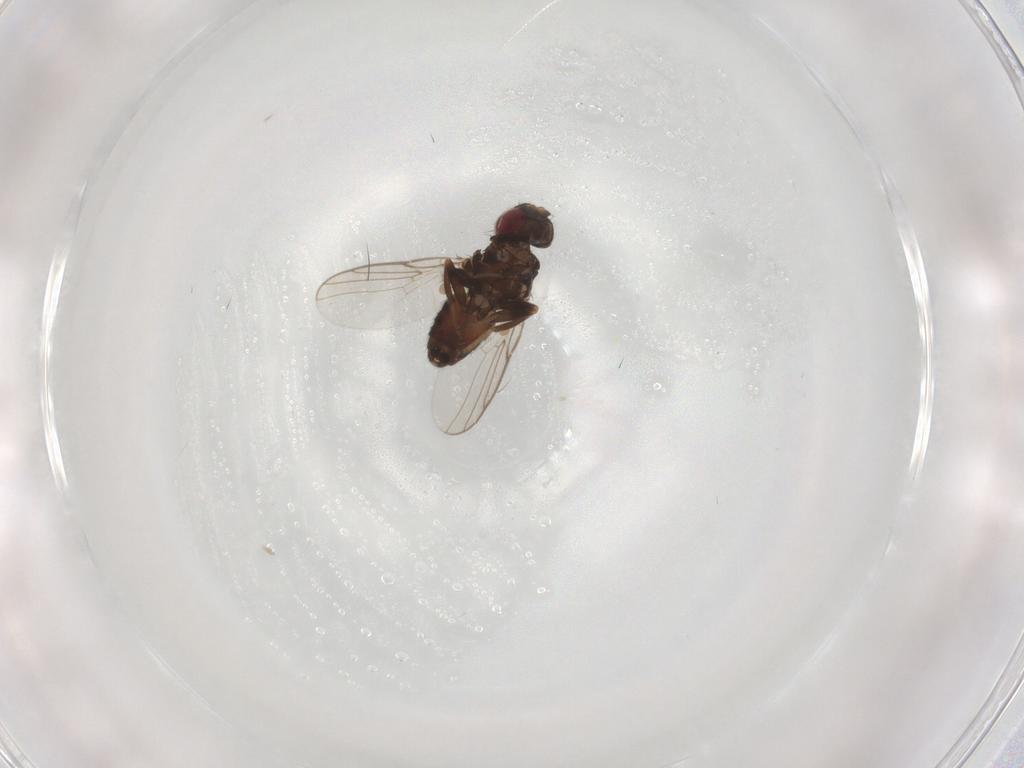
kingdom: Animalia
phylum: Arthropoda
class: Insecta
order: Diptera
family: Chloropidae
